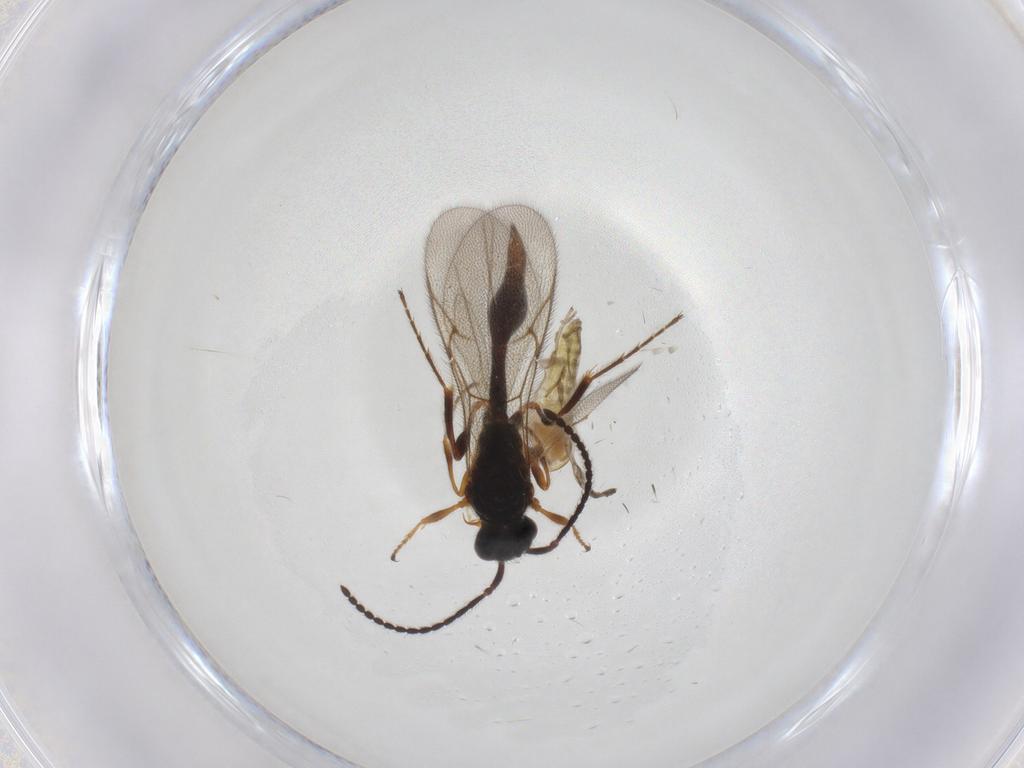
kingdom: Animalia
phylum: Arthropoda
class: Insecta
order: Diptera
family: Chironomidae
